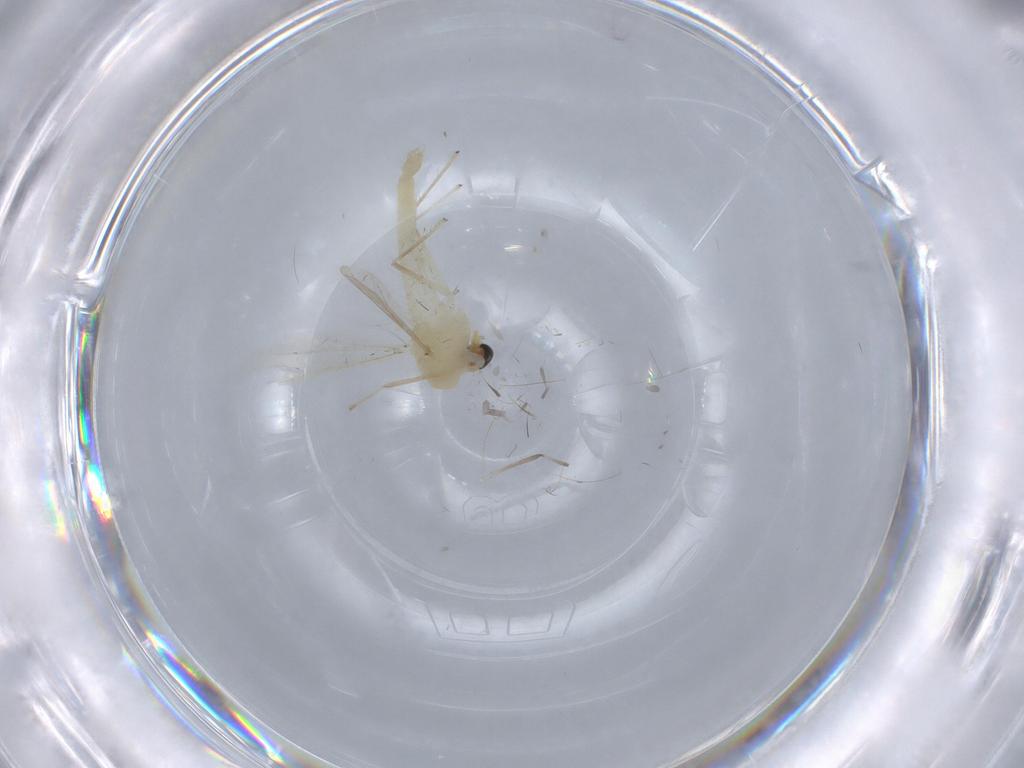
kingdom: Animalia
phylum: Arthropoda
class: Insecta
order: Diptera
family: Chironomidae
